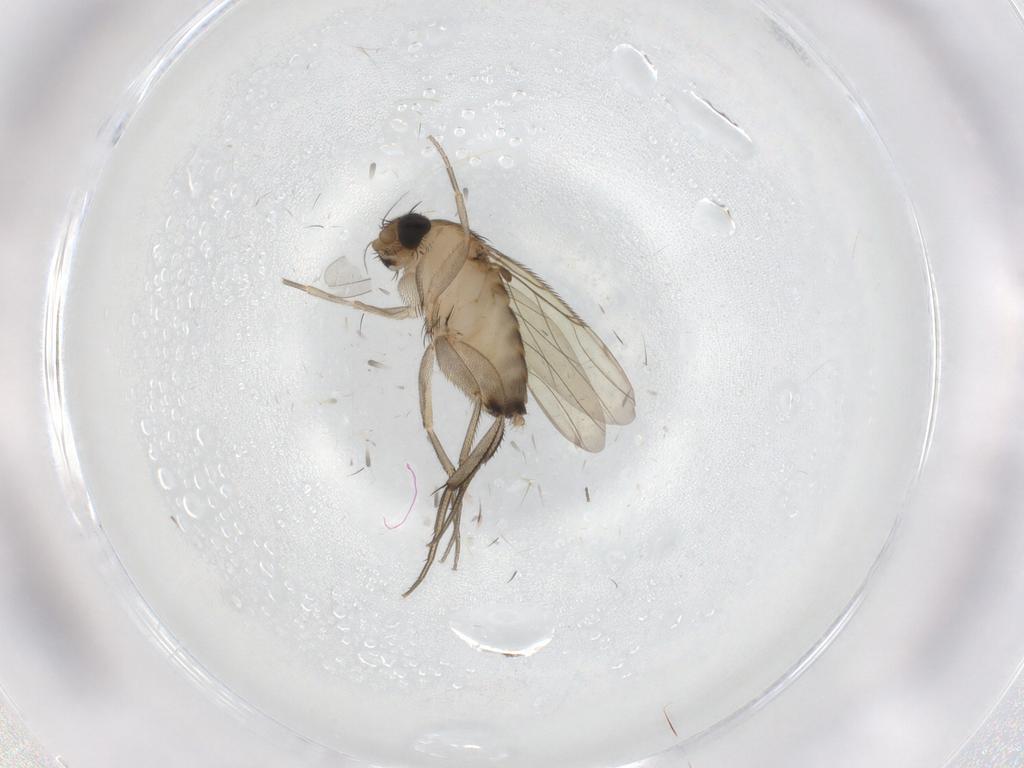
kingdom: Animalia
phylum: Arthropoda
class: Insecta
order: Diptera
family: Phoridae
